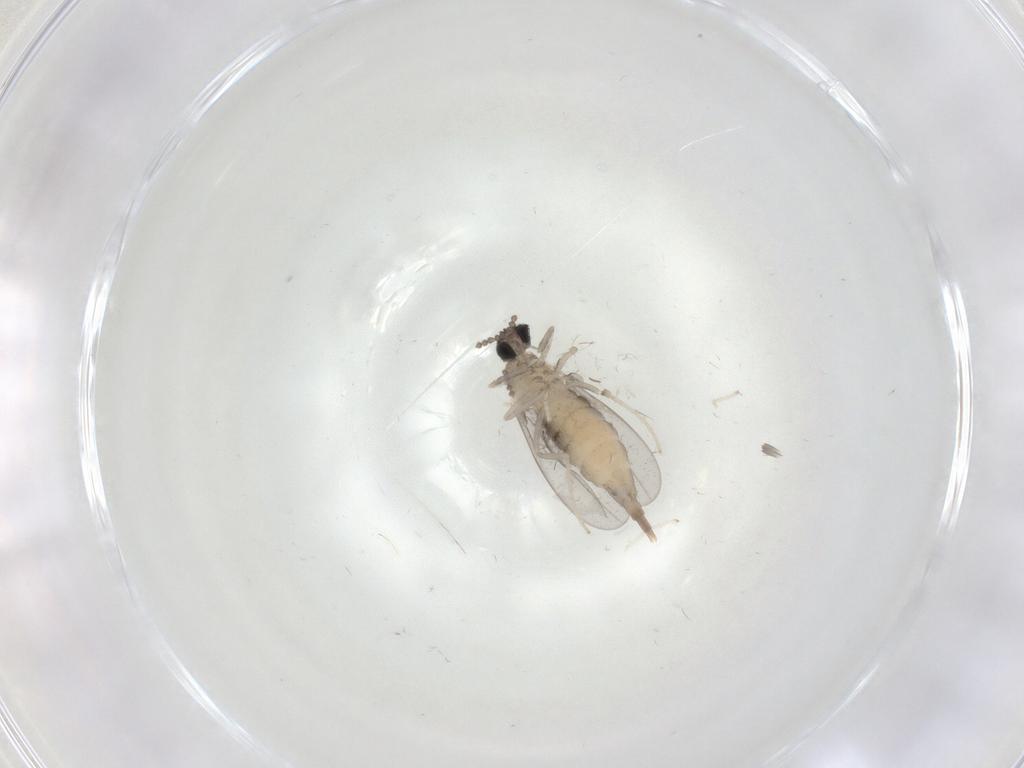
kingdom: Animalia
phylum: Arthropoda
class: Insecta
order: Diptera
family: Cecidomyiidae
